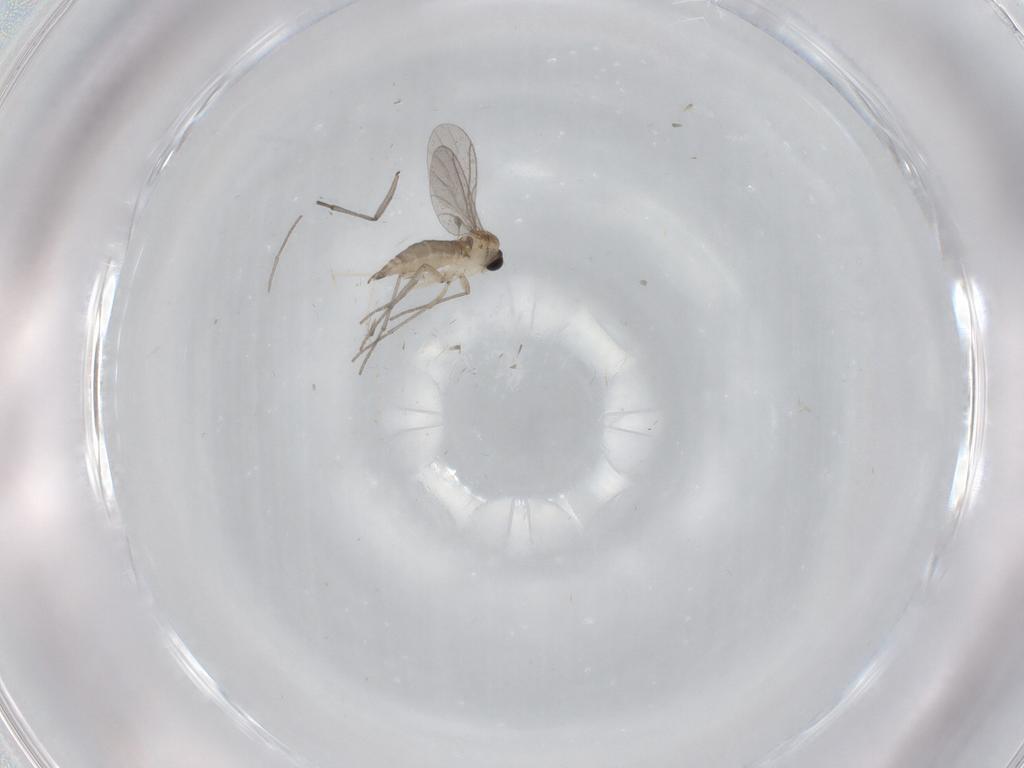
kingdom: Animalia
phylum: Arthropoda
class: Insecta
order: Diptera
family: Sciaridae
